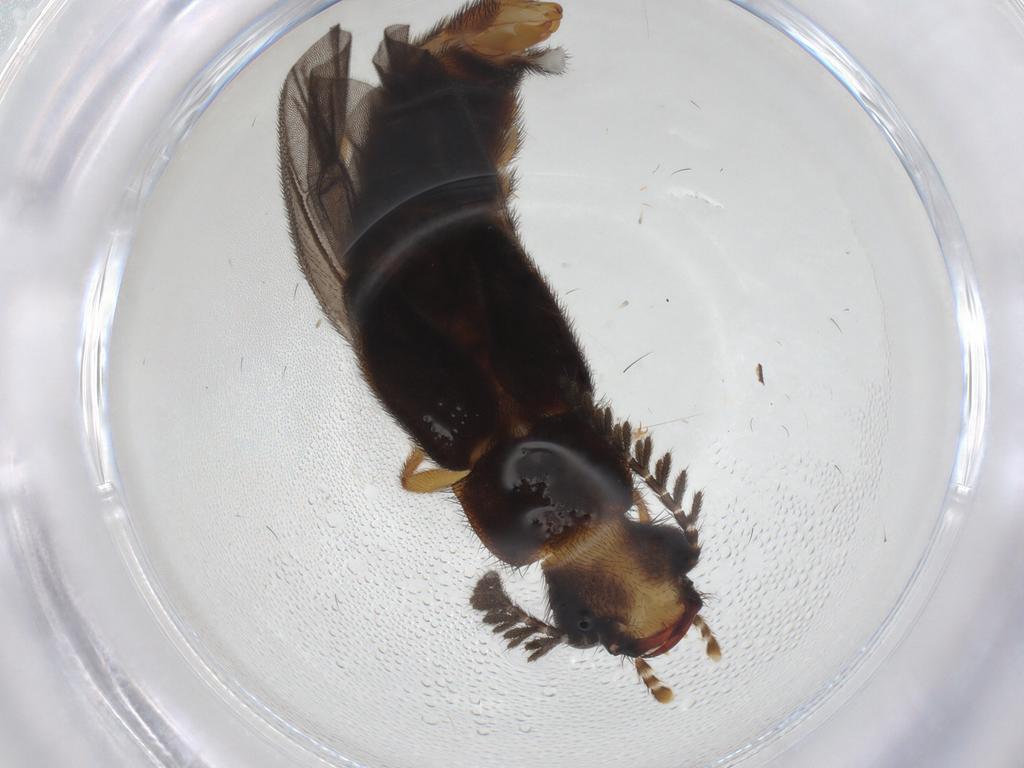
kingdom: Animalia
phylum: Arthropoda
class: Insecta
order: Coleoptera
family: Phengodidae
